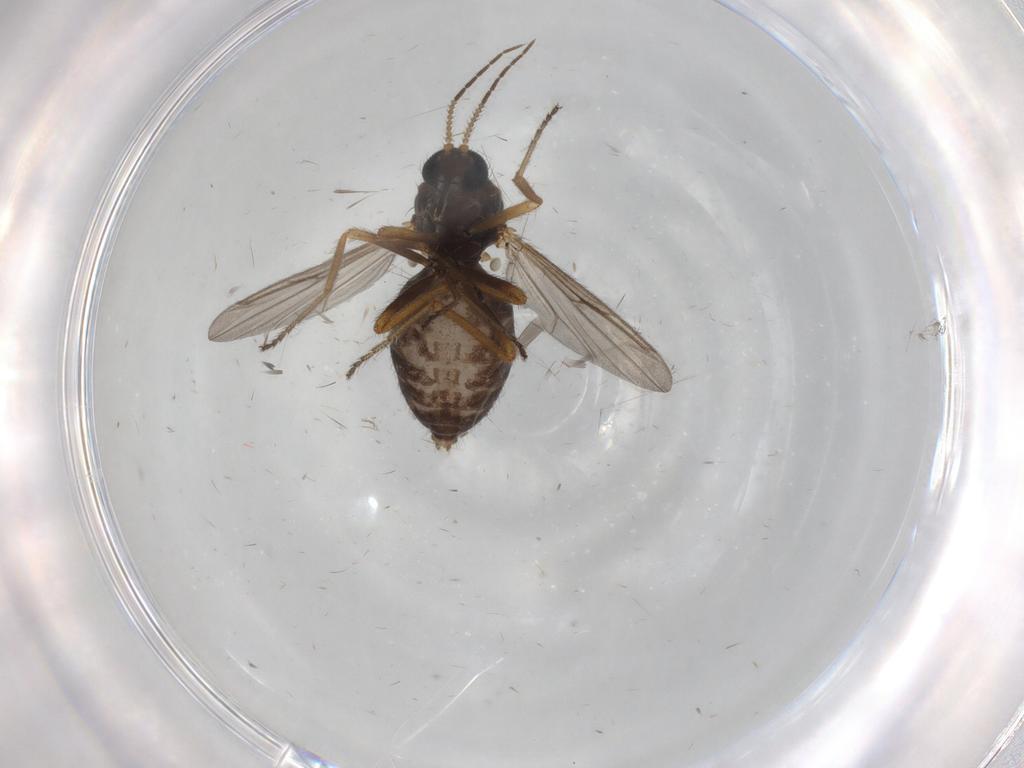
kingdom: Animalia
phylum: Arthropoda
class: Insecta
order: Diptera
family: Ceratopogonidae
